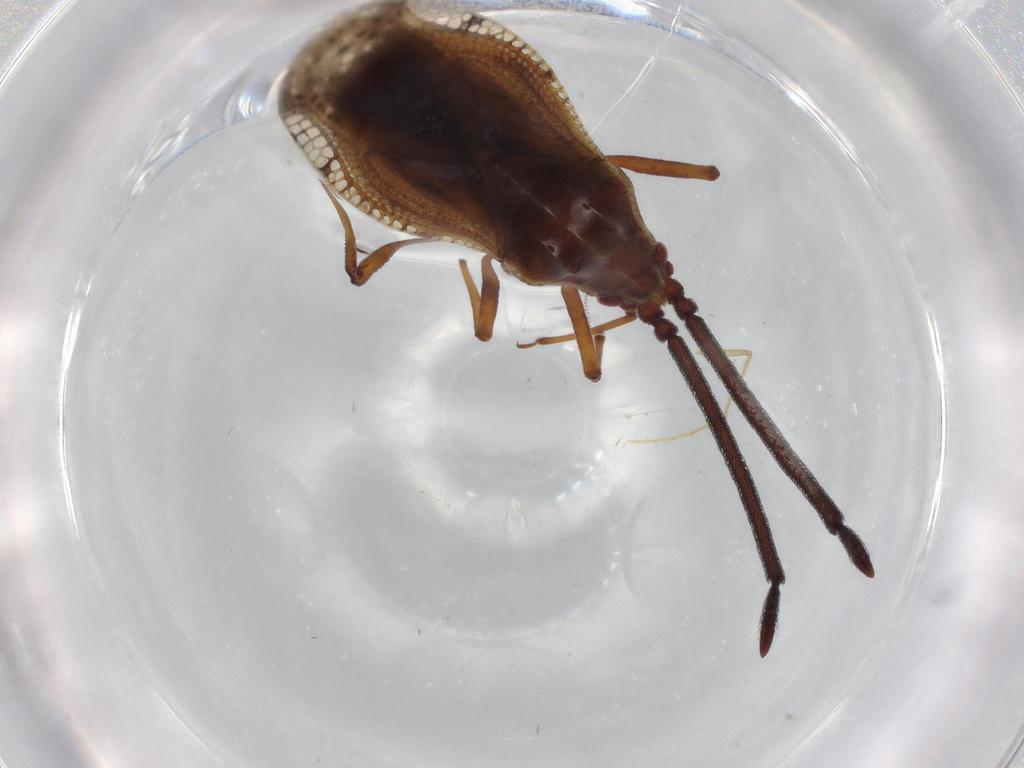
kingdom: Animalia
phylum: Arthropoda
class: Insecta
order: Hemiptera
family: Tingidae
